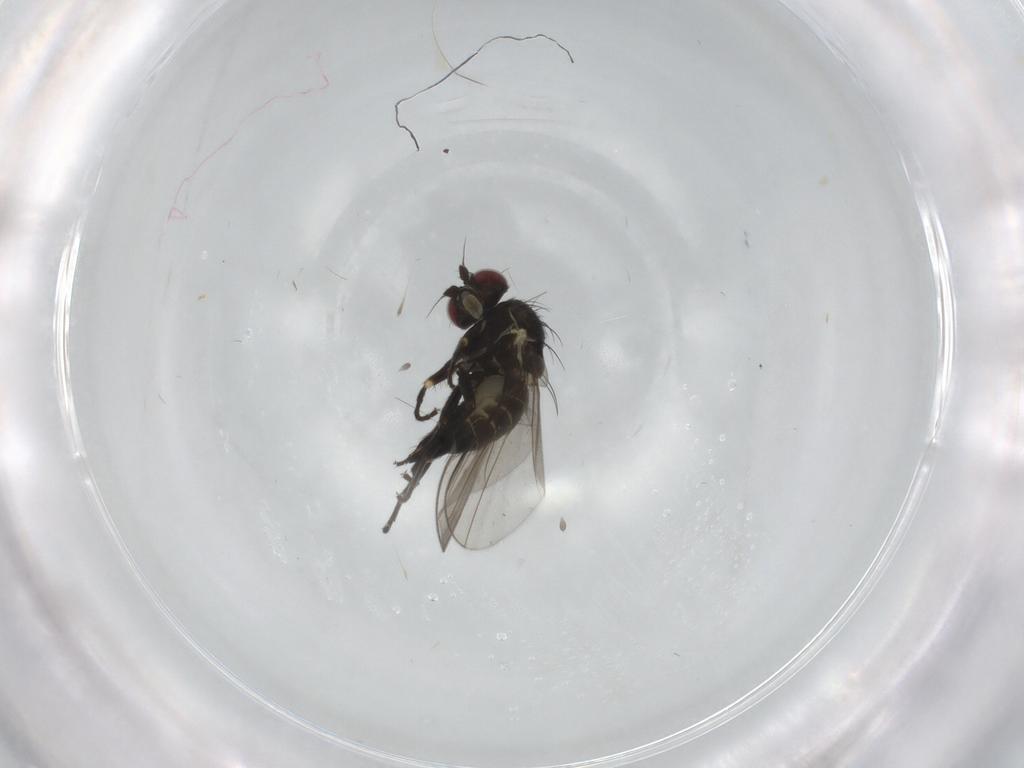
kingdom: Animalia
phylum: Arthropoda
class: Insecta
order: Diptera
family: Agromyzidae
